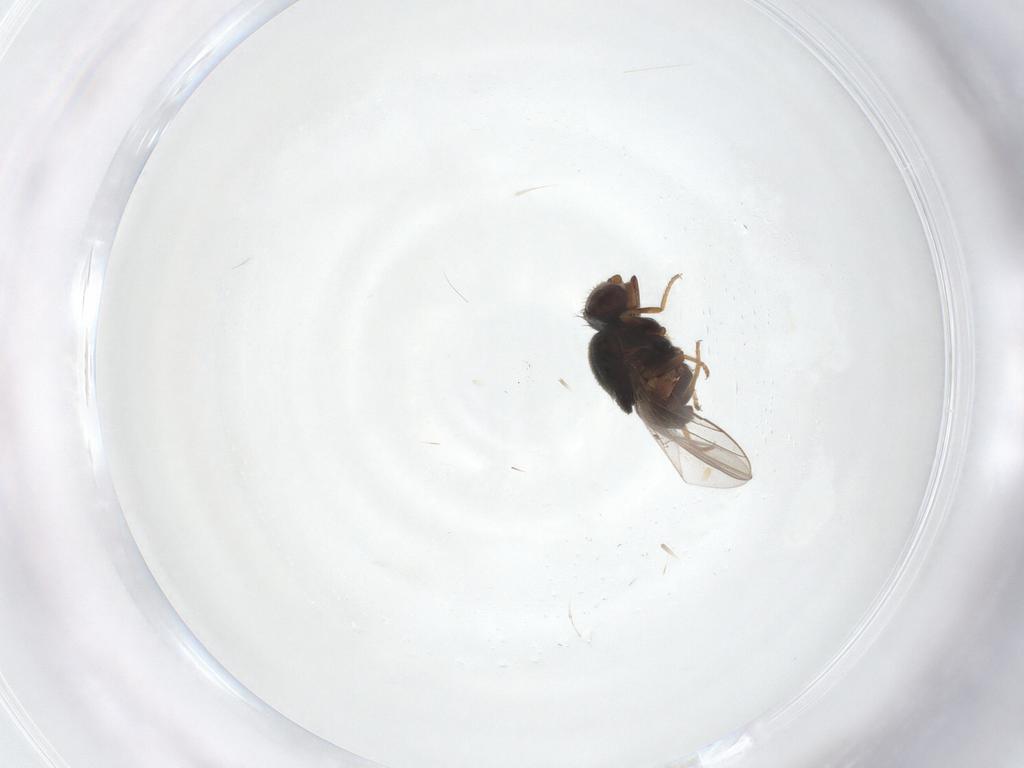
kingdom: Animalia
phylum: Arthropoda
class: Insecta
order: Diptera
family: Chloropidae
